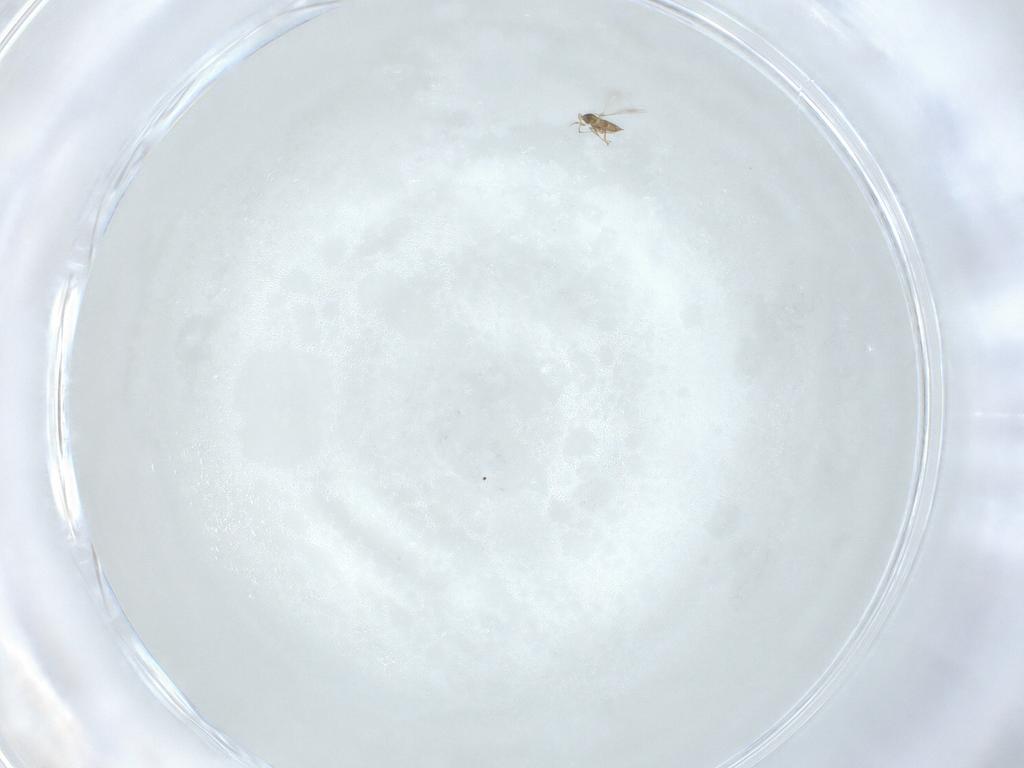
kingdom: Animalia
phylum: Arthropoda
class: Insecta
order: Hymenoptera
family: Mymaridae
